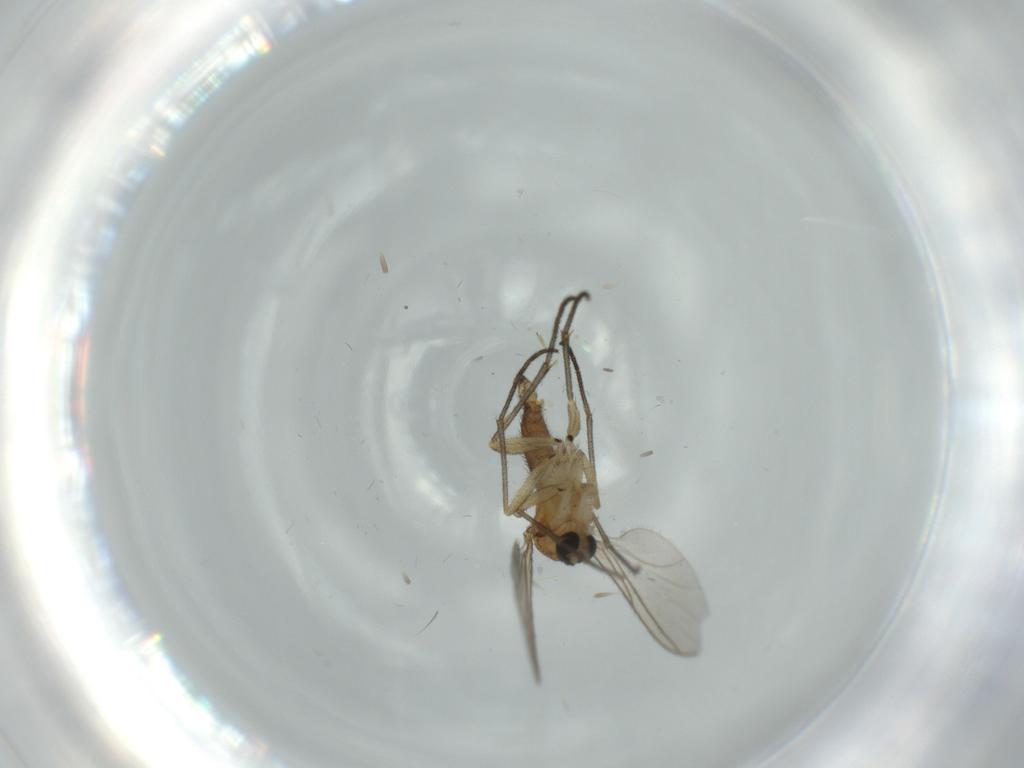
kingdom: Animalia
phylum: Arthropoda
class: Insecta
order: Diptera
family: Sciaridae
